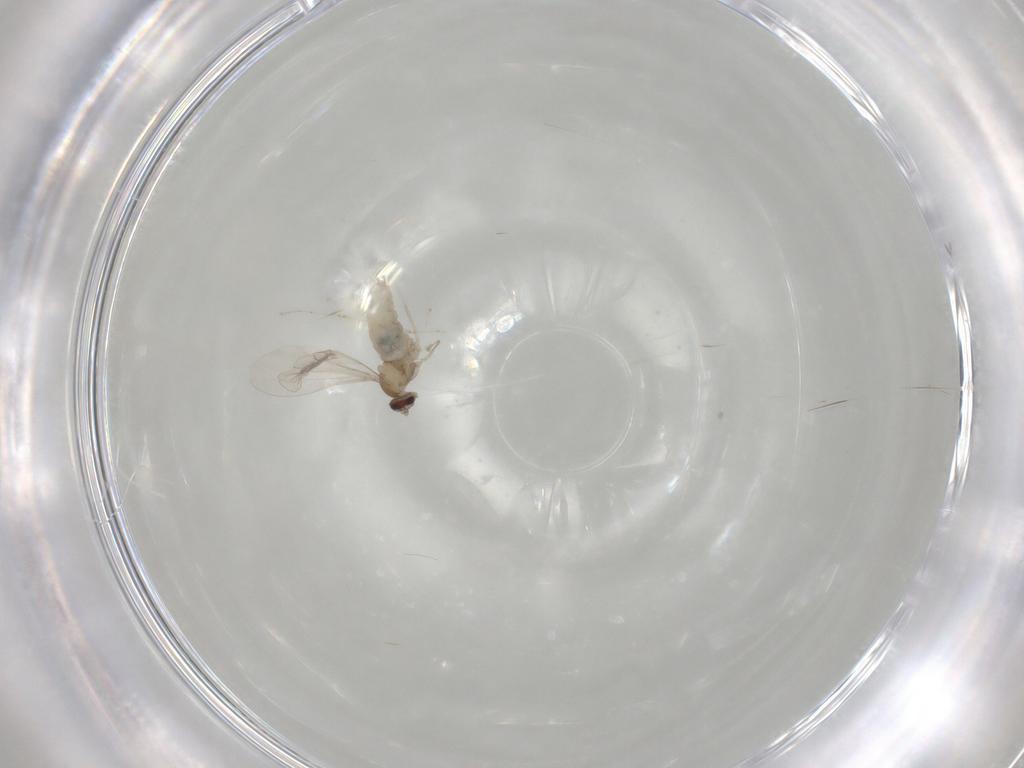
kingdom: Animalia
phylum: Arthropoda
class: Insecta
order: Diptera
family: Cecidomyiidae
